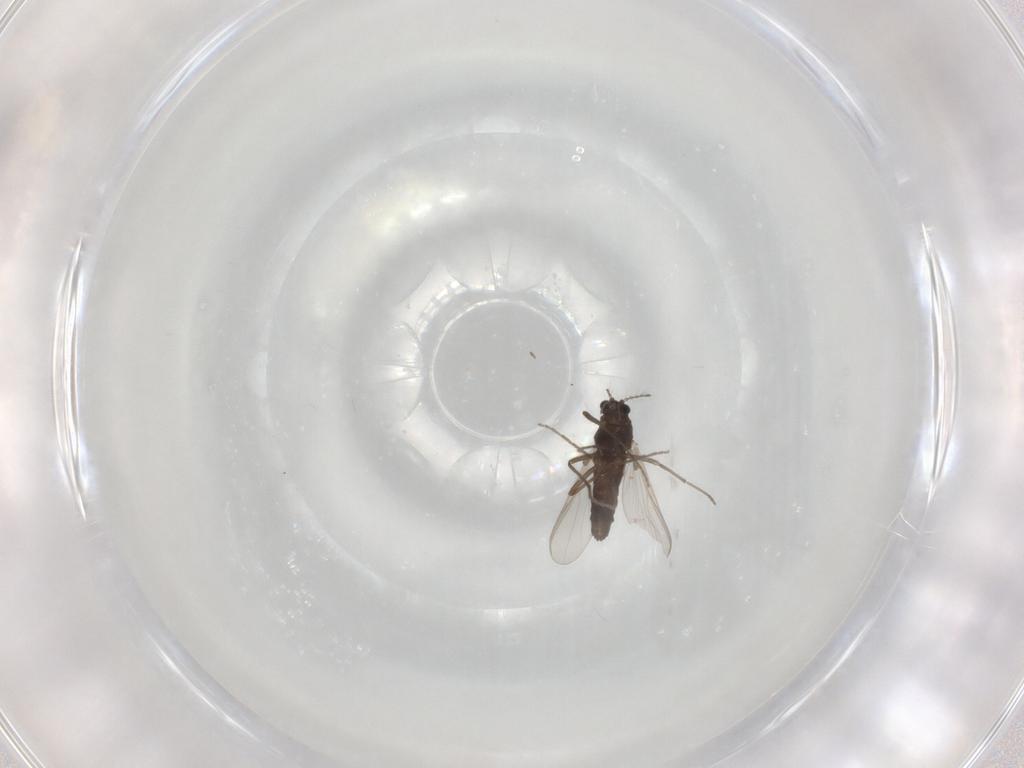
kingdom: Animalia
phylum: Arthropoda
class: Insecta
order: Diptera
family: Chironomidae
